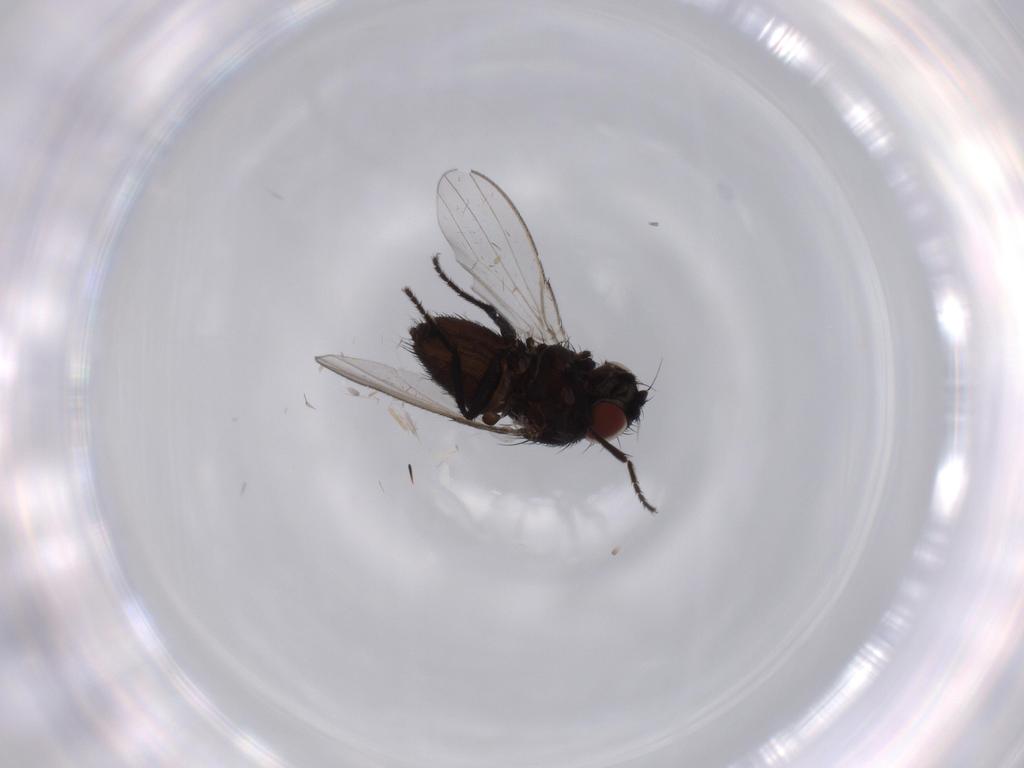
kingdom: Animalia
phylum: Arthropoda
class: Insecta
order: Diptera
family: Milichiidae
